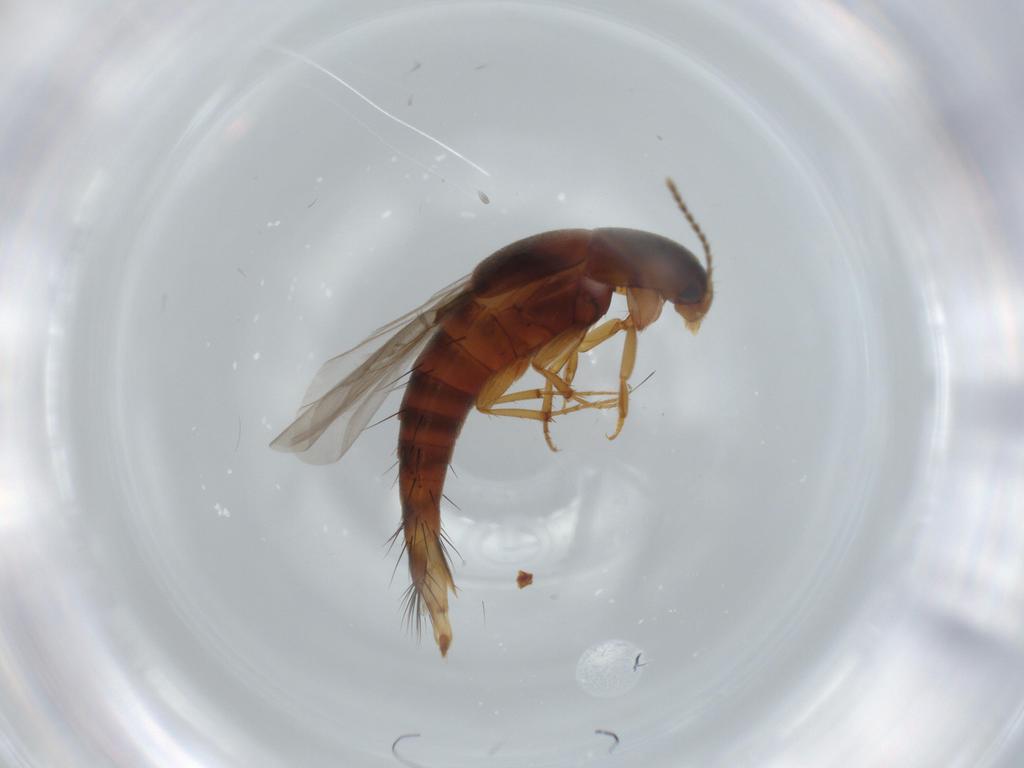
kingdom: Animalia
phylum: Arthropoda
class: Insecta
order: Coleoptera
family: Staphylinidae
